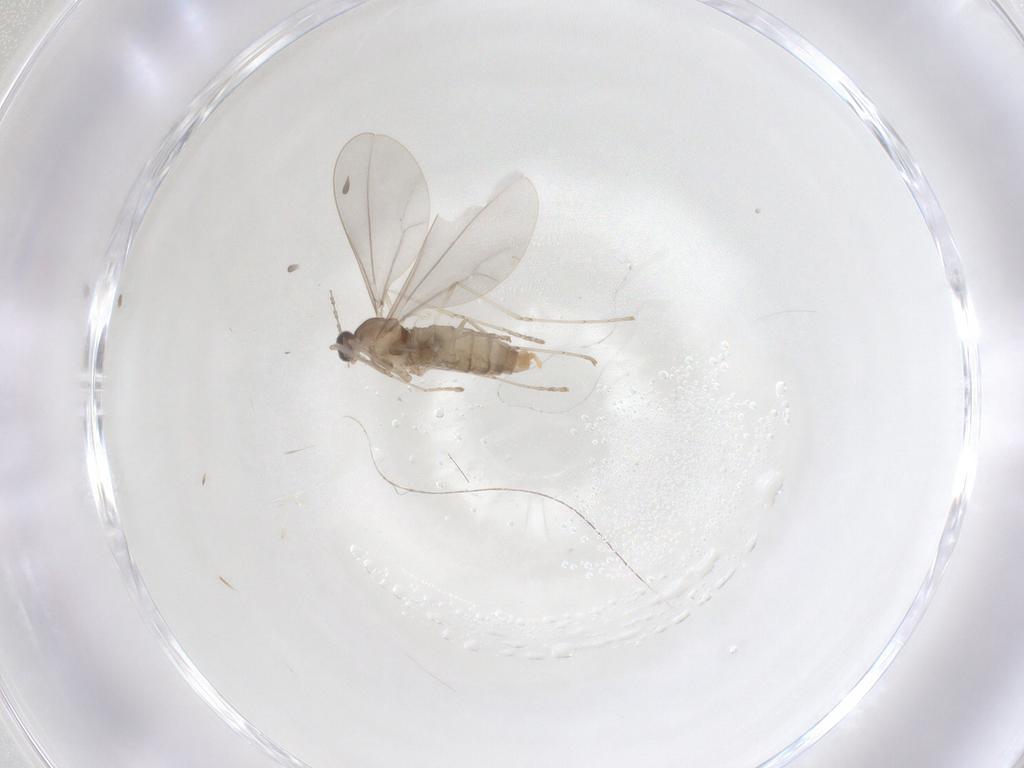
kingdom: Animalia
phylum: Arthropoda
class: Insecta
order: Diptera
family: Cecidomyiidae
